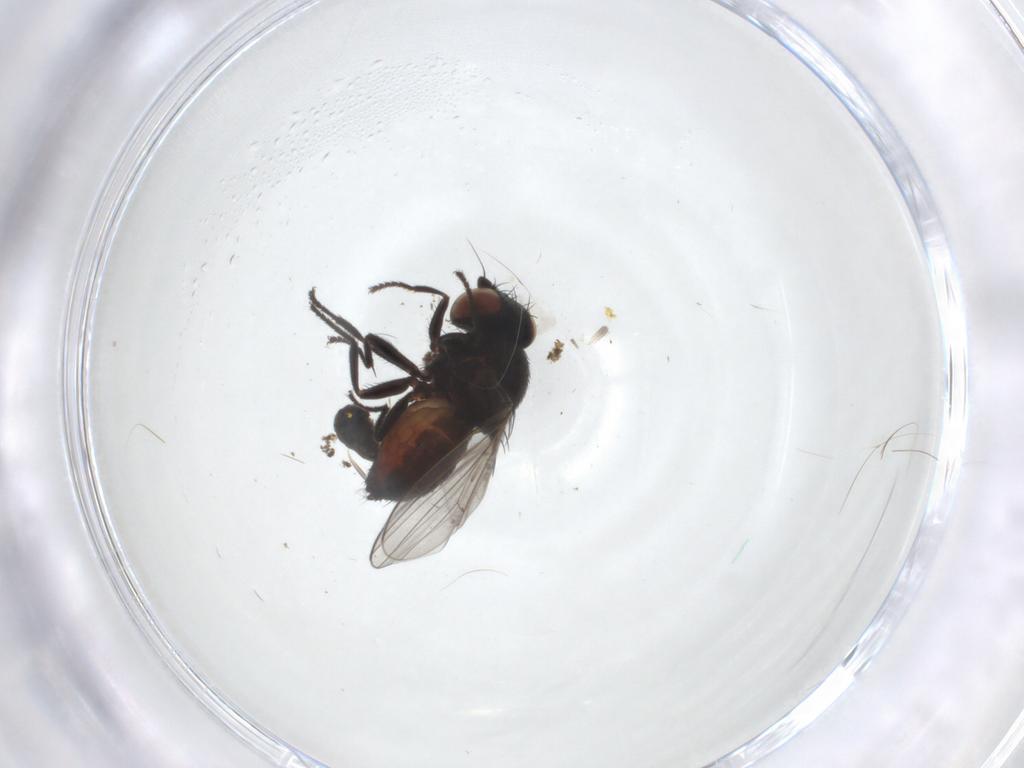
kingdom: Animalia
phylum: Arthropoda
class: Insecta
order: Diptera
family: Milichiidae
